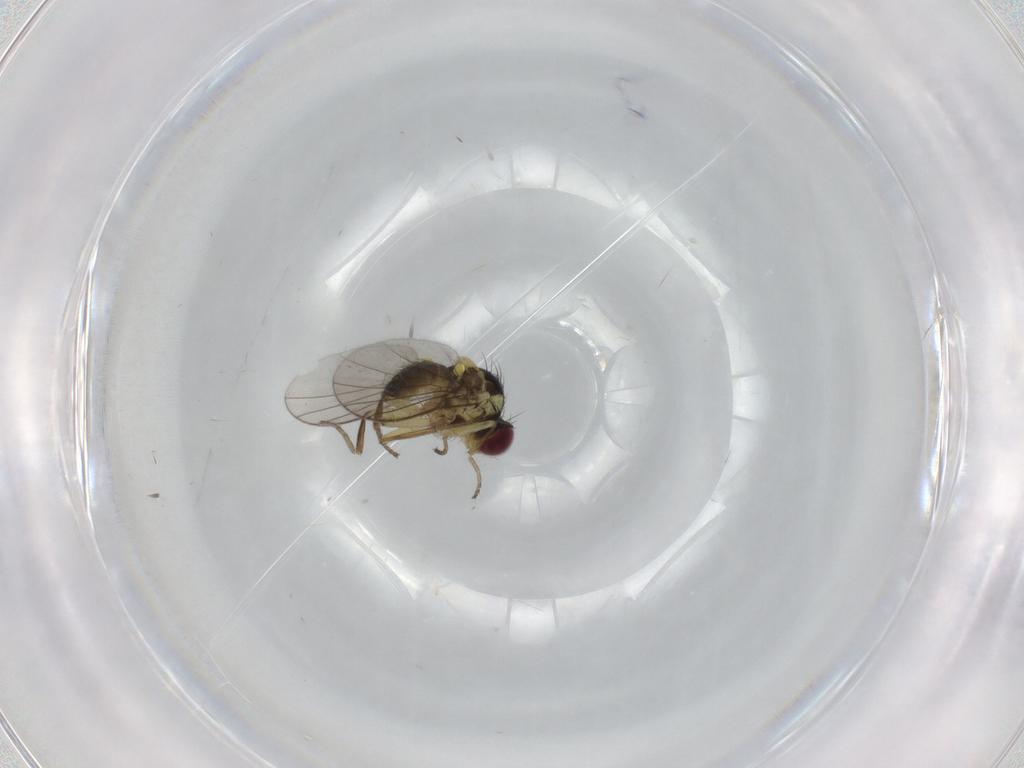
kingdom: Animalia
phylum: Arthropoda
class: Insecta
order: Diptera
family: Agromyzidae
